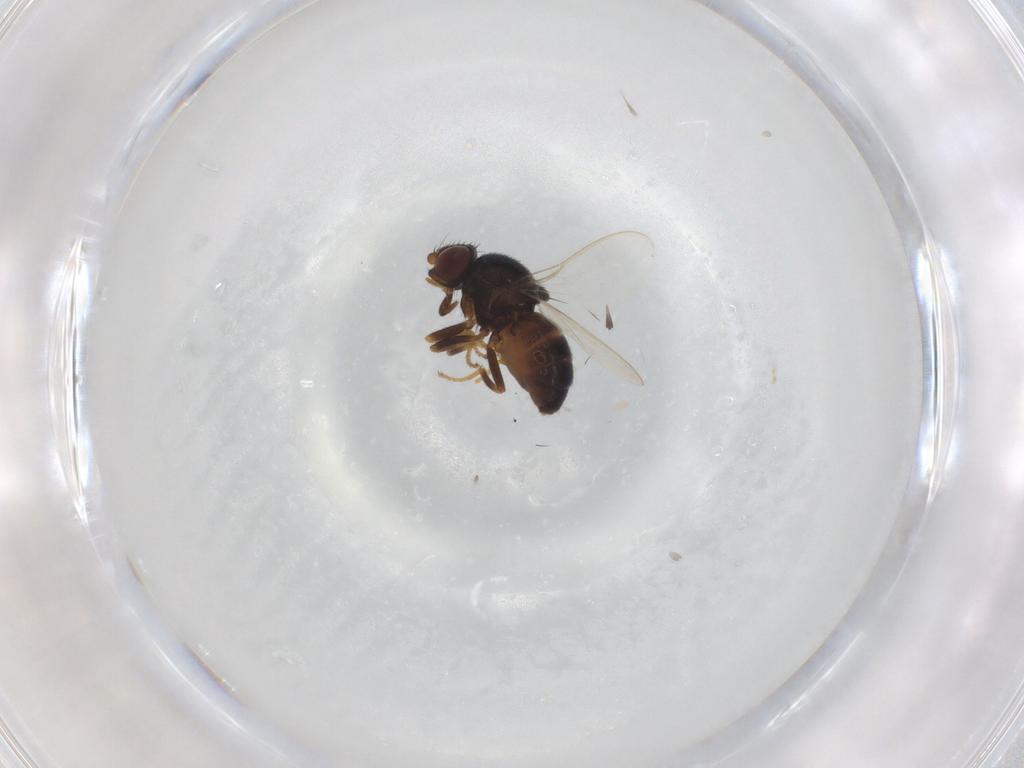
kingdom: Animalia
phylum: Arthropoda
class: Insecta
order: Diptera
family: Chloropidae
